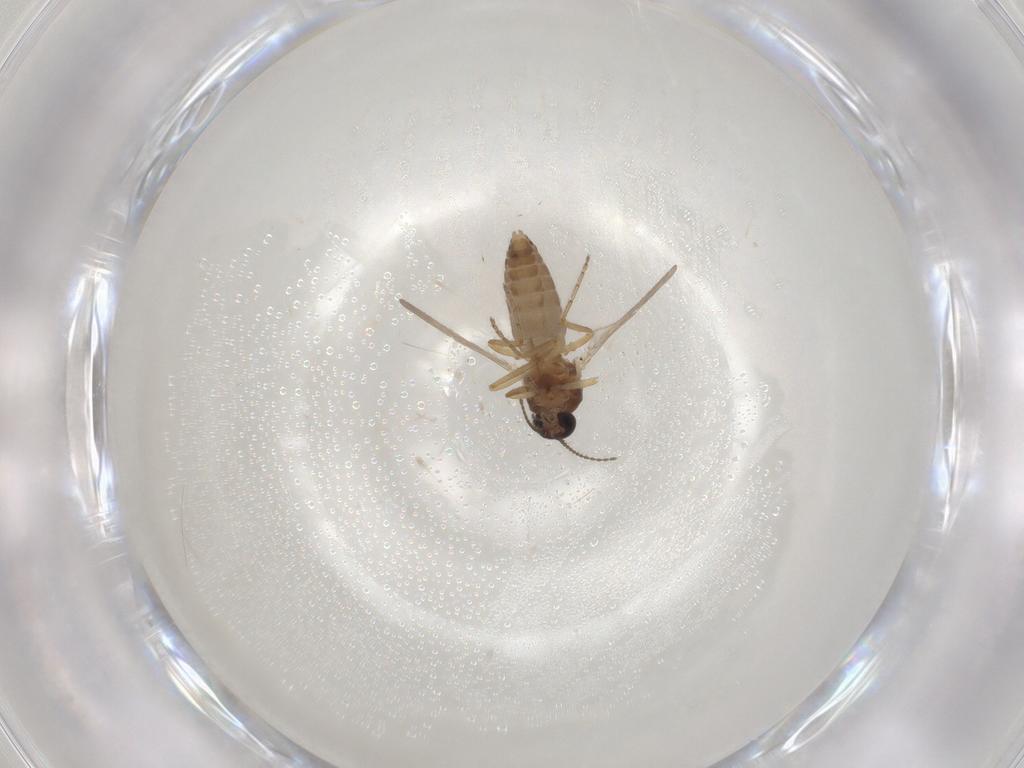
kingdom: Animalia
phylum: Arthropoda
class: Insecta
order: Diptera
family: Ceratopogonidae
